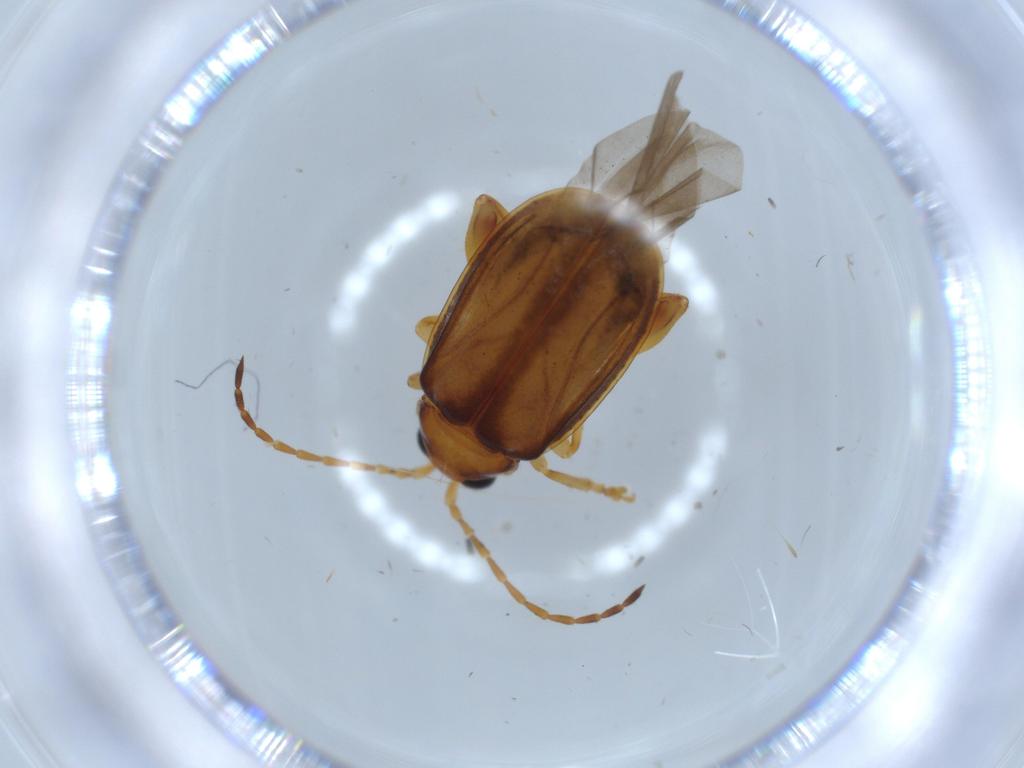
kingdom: Animalia
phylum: Arthropoda
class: Insecta
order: Coleoptera
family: Chrysomelidae
